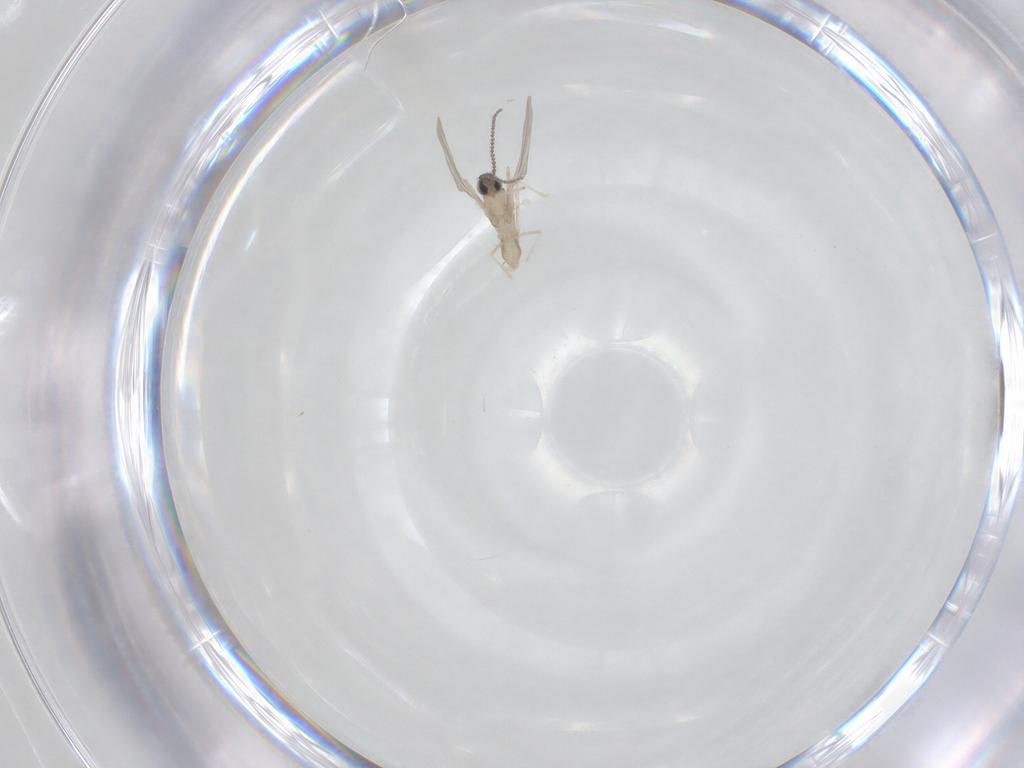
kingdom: Animalia
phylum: Arthropoda
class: Insecta
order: Diptera
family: Cecidomyiidae
